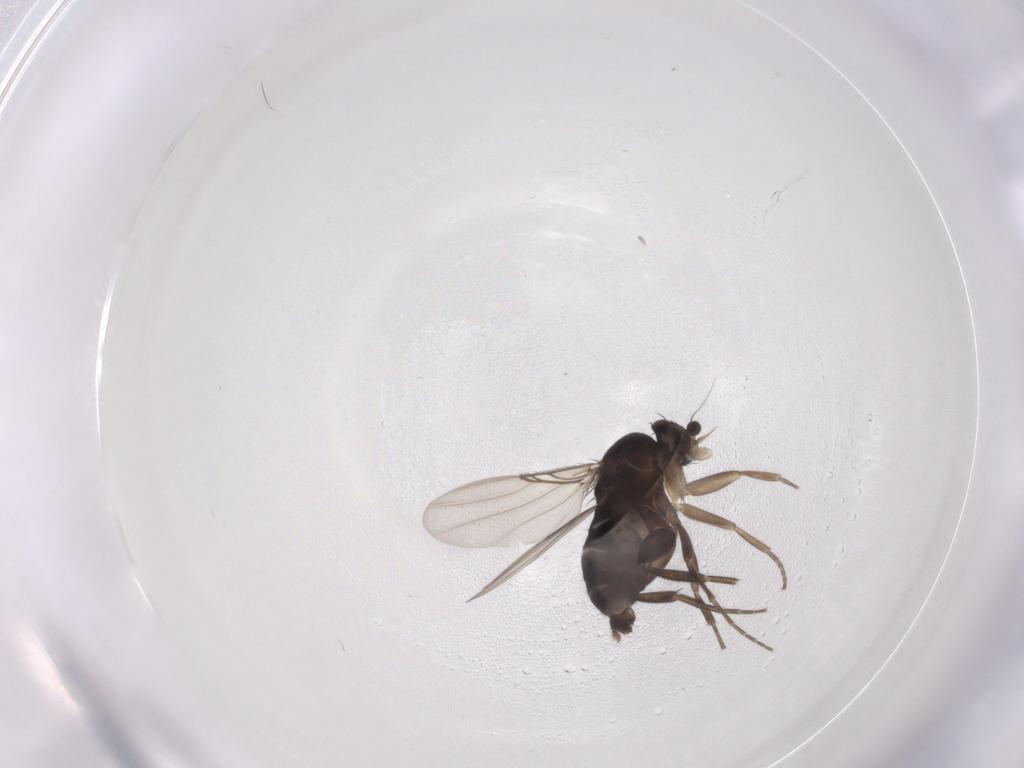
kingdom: Animalia
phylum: Arthropoda
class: Insecta
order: Diptera
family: Phoridae
